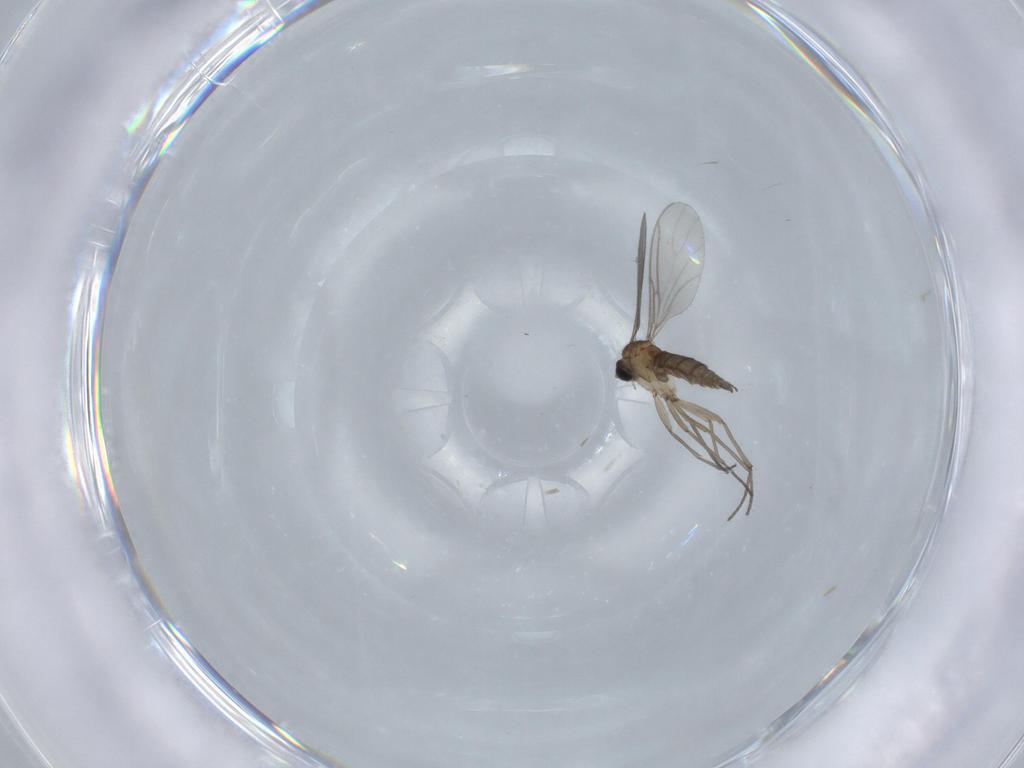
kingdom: Animalia
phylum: Arthropoda
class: Insecta
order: Diptera
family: Sciaridae
